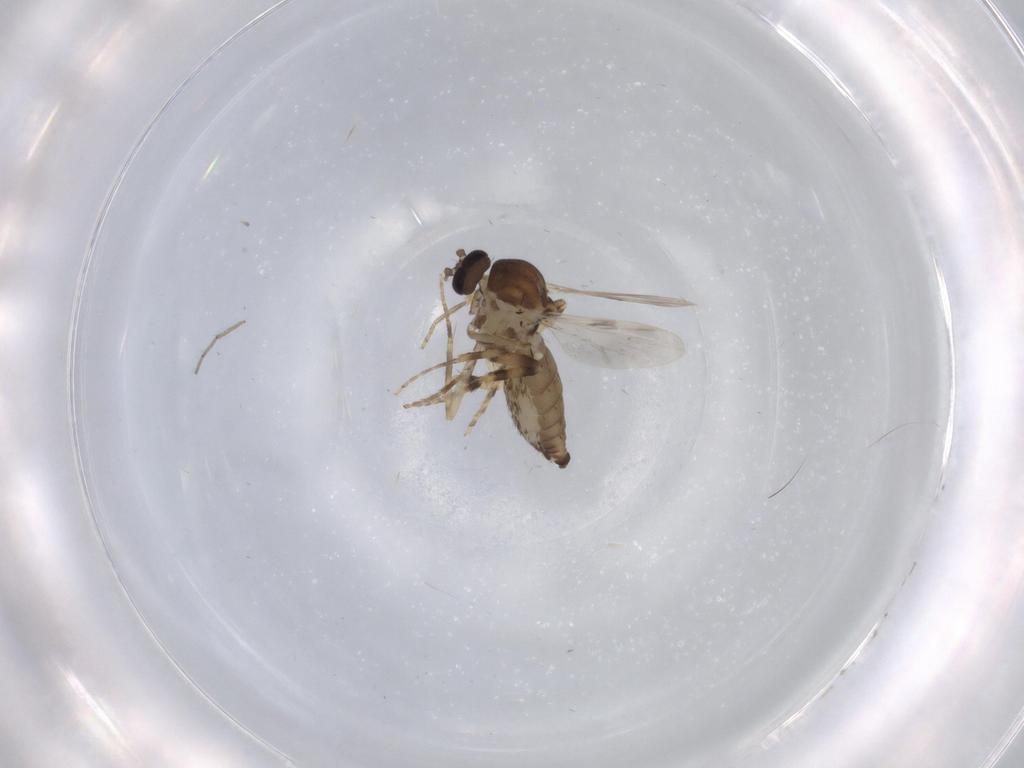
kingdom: Animalia
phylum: Arthropoda
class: Insecta
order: Diptera
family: Ceratopogonidae
